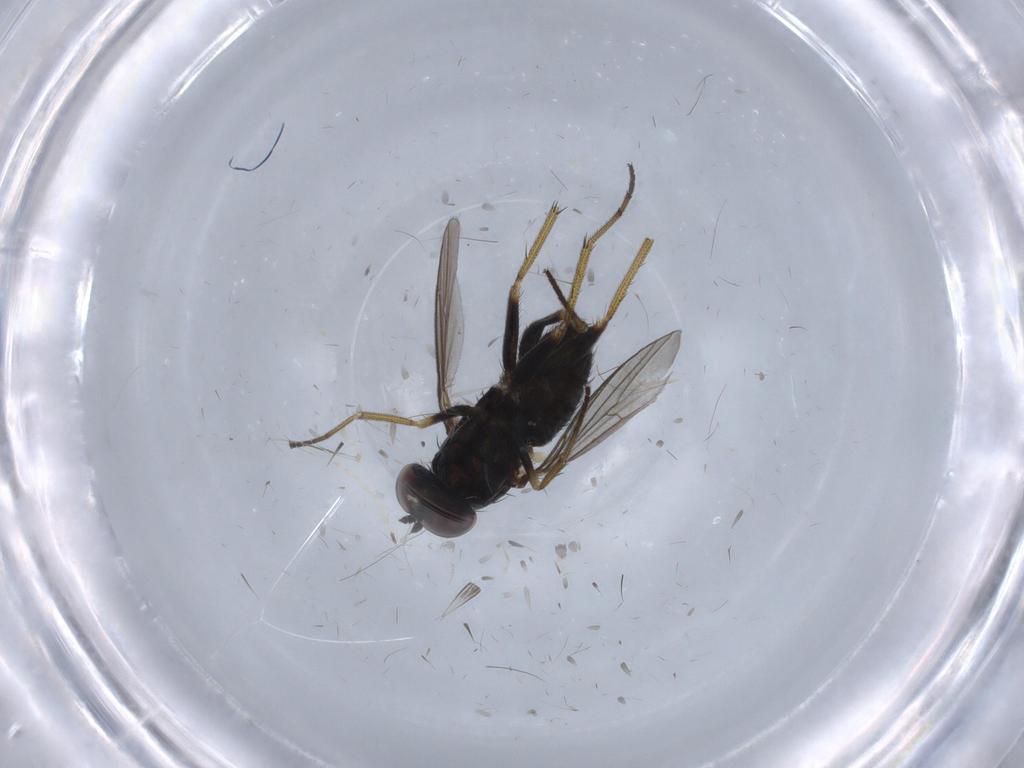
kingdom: Animalia
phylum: Arthropoda
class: Insecta
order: Diptera
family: Dolichopodidae
